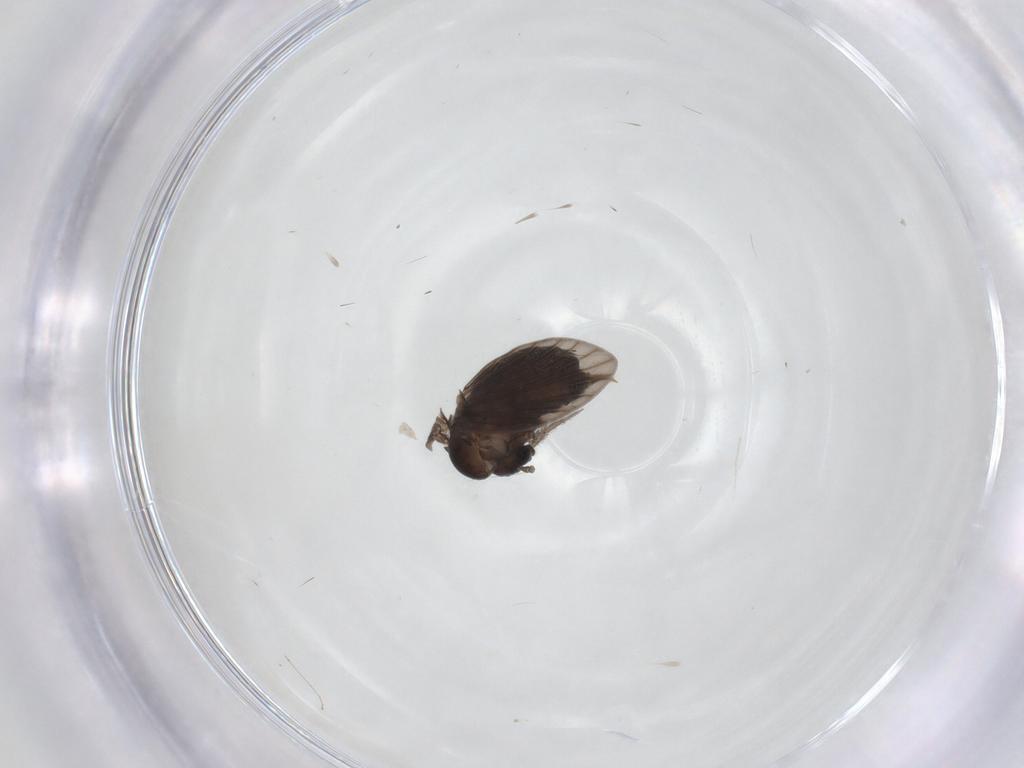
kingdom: Animalia
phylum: Arthropoda
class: Insecta
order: Diptera
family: Psychodidae
